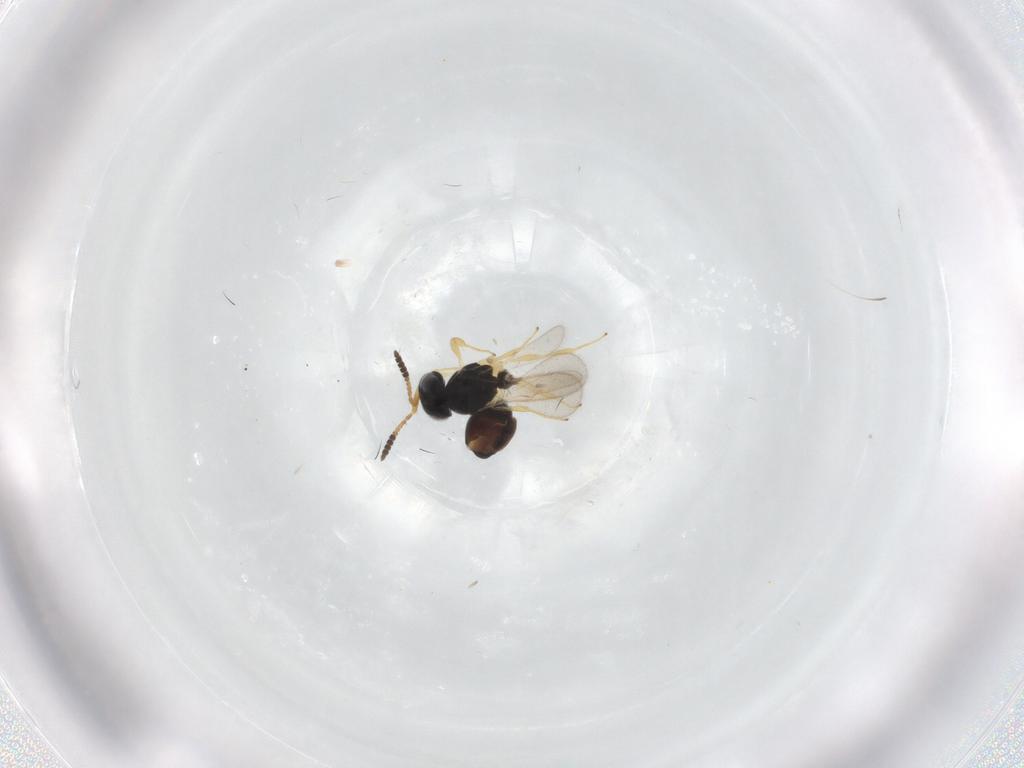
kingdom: Animalia
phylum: Arthropoda
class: Insecta
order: Hymenoptera
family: Scelionidae
